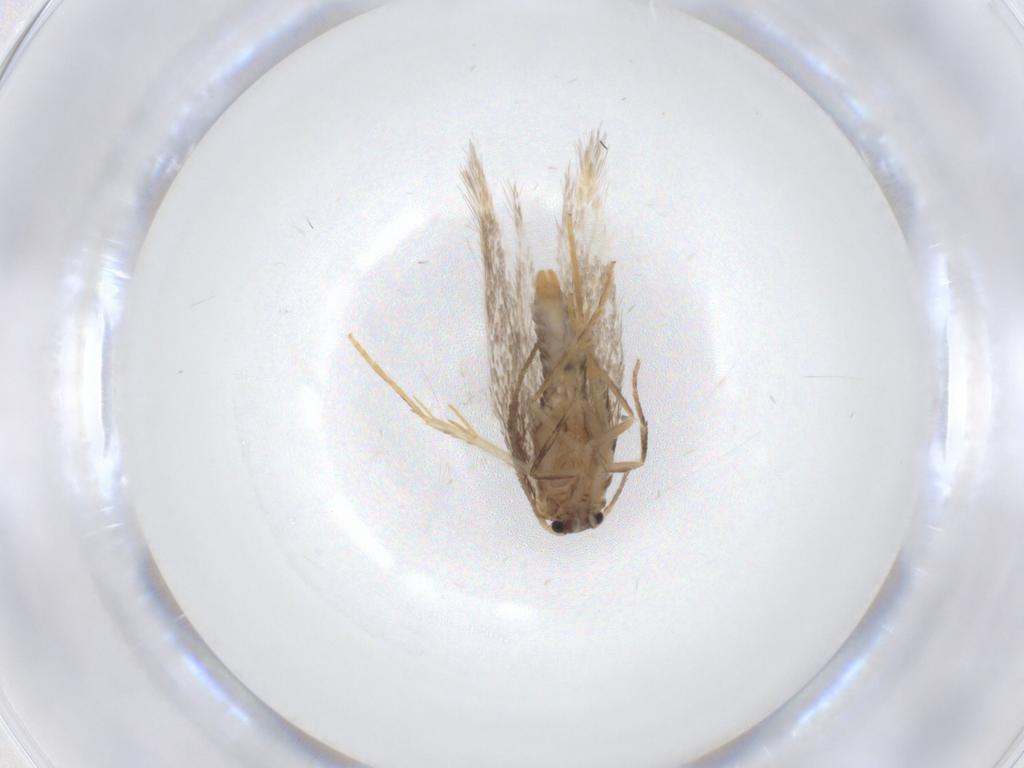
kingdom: Animalia
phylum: Arthropoda
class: Insecta
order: Lepidoptera
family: Nepticulidae
